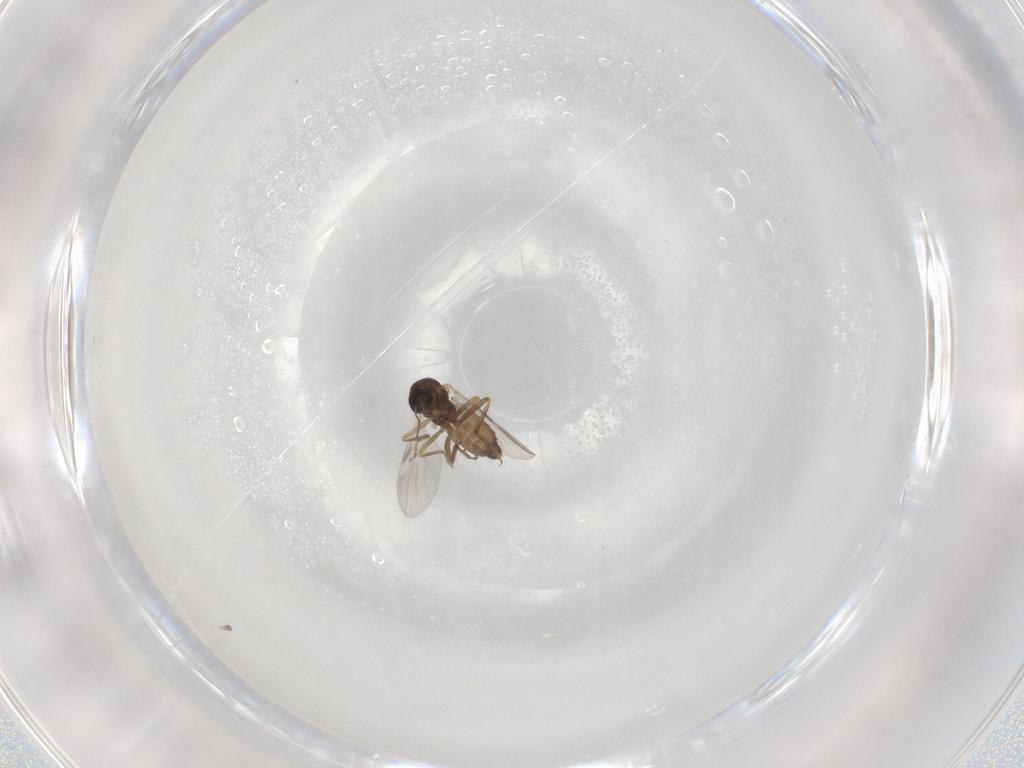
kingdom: Animalia
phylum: Arthropoda
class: Insecta
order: Diptera
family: Ceratopogonidae
